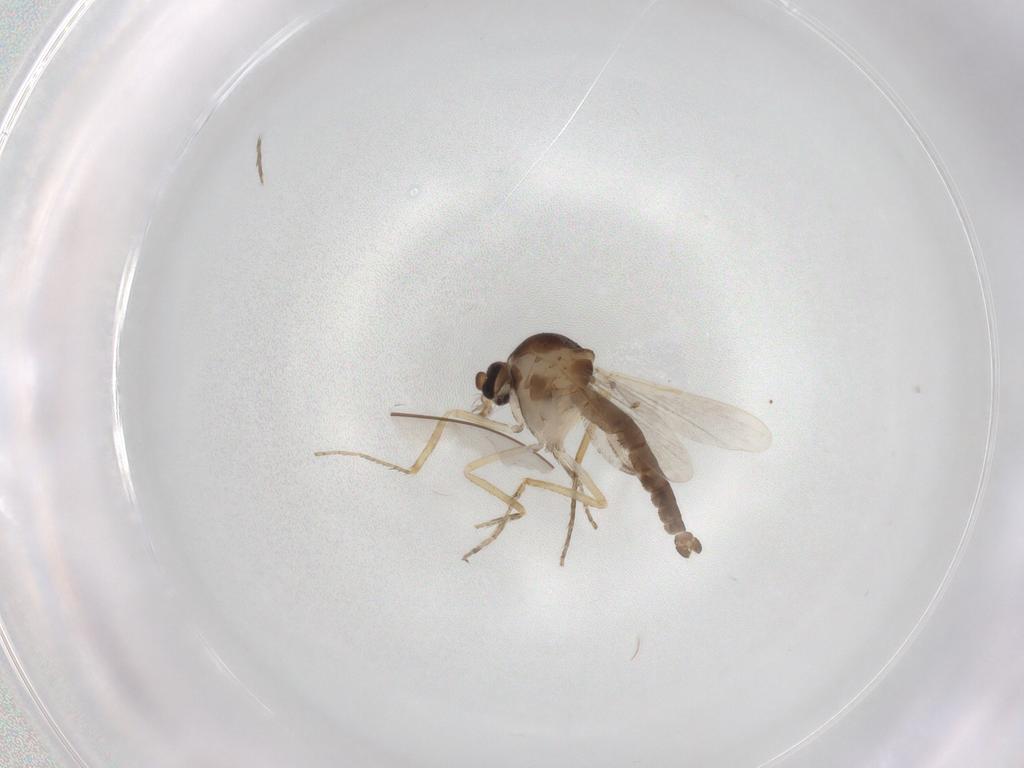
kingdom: Animalia
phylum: Arthropoda
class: Insecta
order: Diptera
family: Ceratopogonidae
